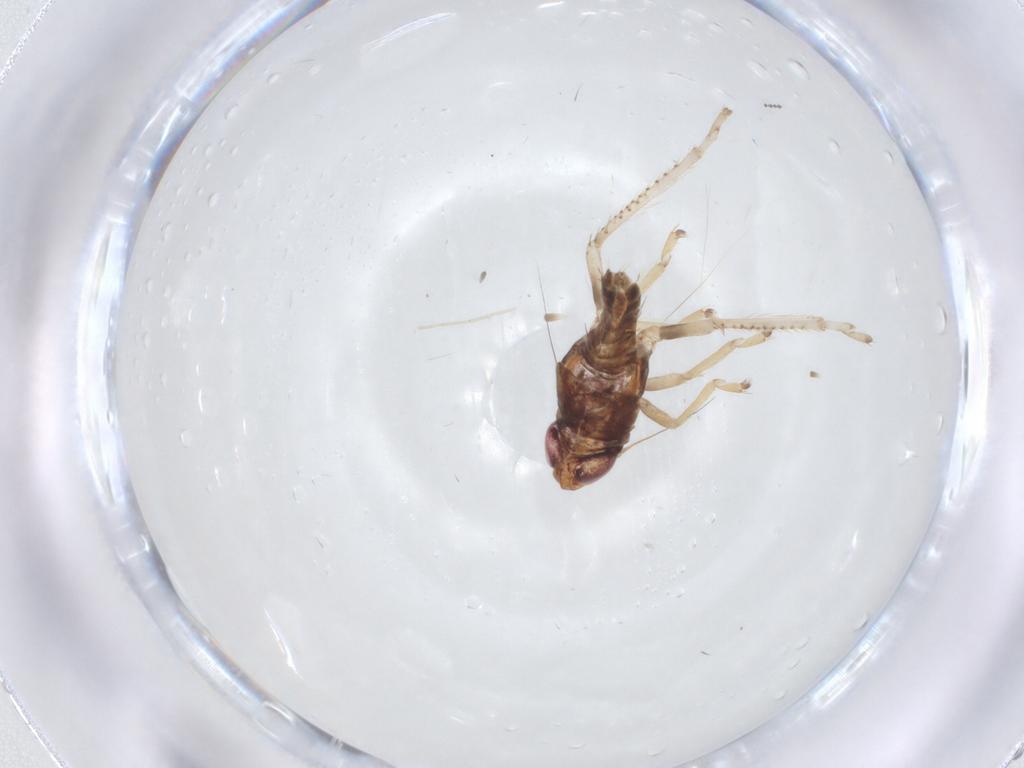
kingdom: Animalia
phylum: Arthropoda
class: Insecta
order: Hemiptera
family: Cicadellidae
